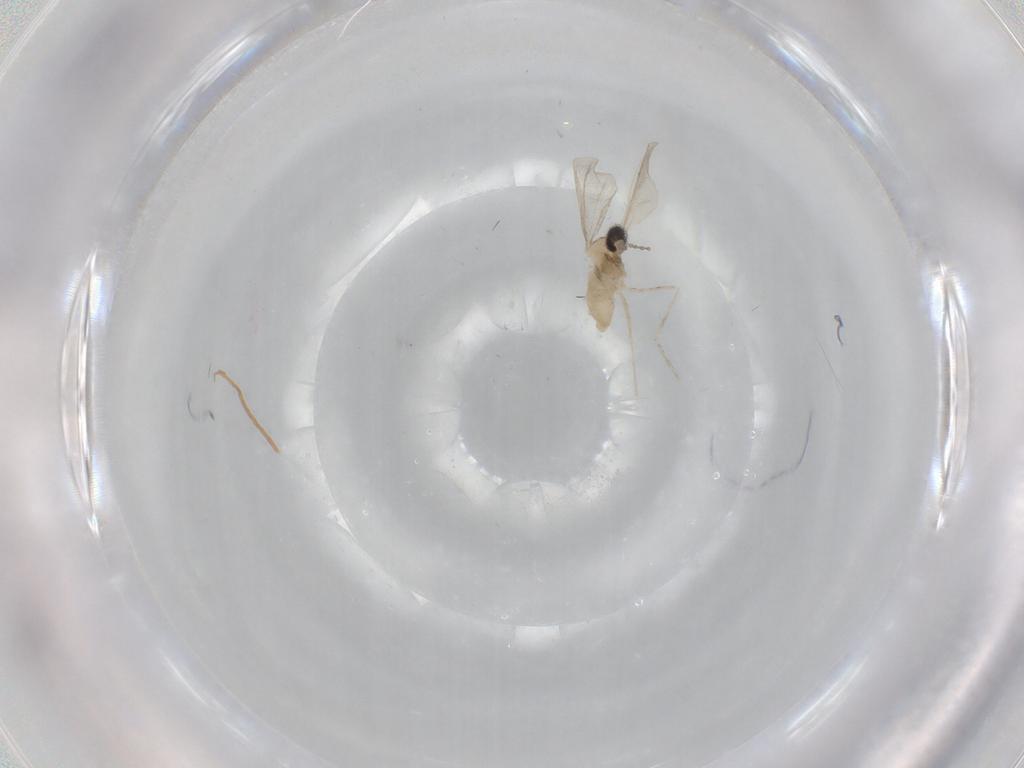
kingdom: Animalia
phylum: Arthropoda
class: Insecta
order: Diptera
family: Cecidomyiidae
